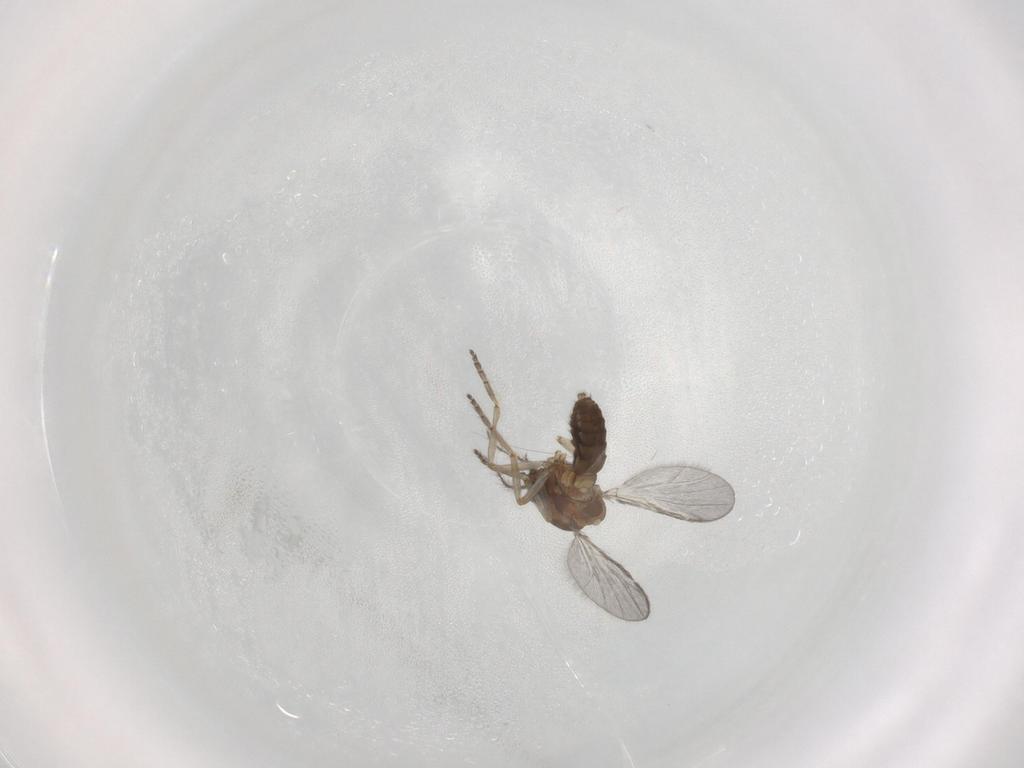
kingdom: Animalia
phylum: Arthropoda
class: Insecta
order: Diptera
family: Ceratopogonidae
